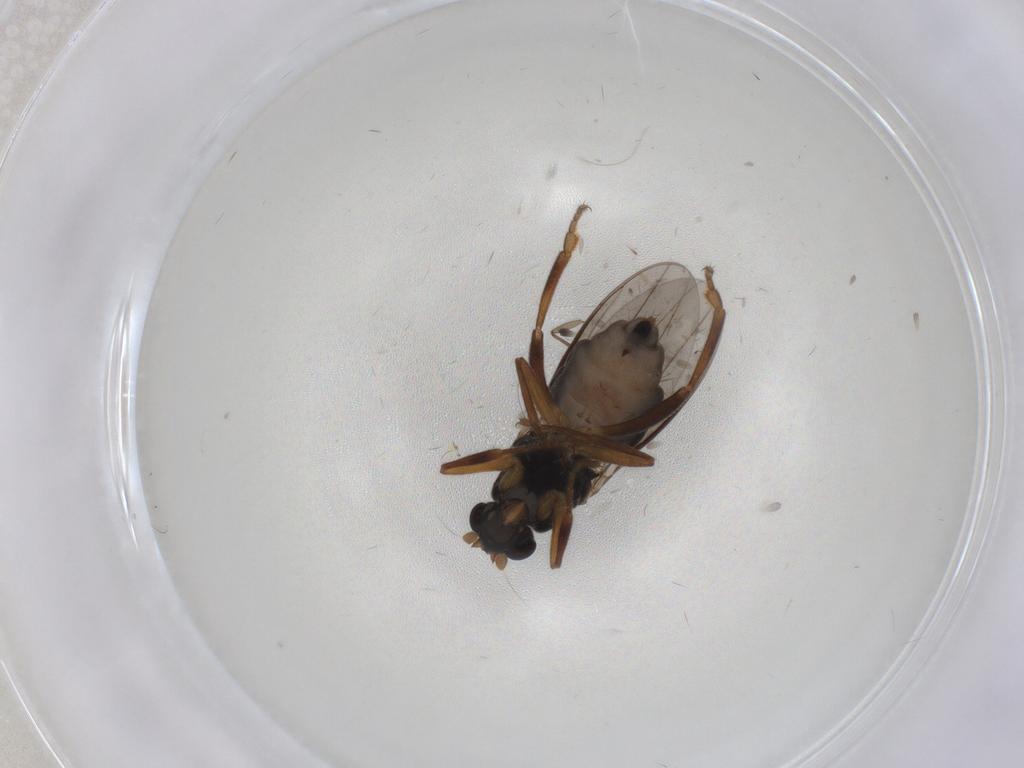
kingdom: Animalia
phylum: Arthropoda
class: Insecta
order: Diptera
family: Sphaeroceridae
